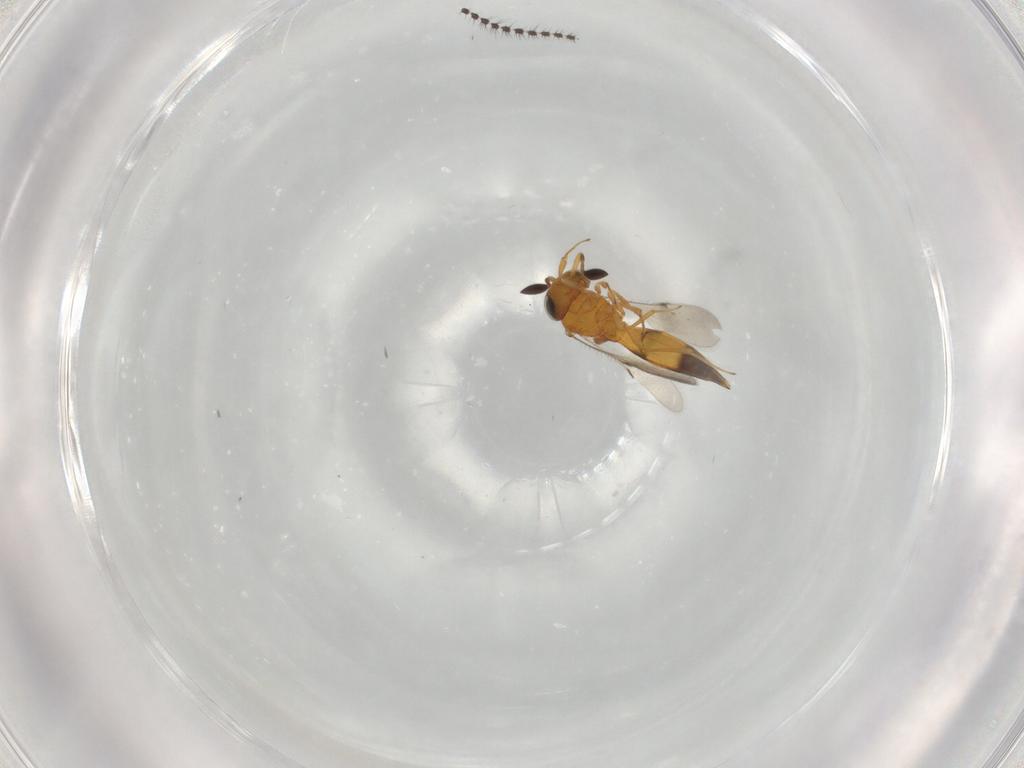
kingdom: Animalia
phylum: Arthropoda
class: Insecta
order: Hymenoptera
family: Scelionidae
